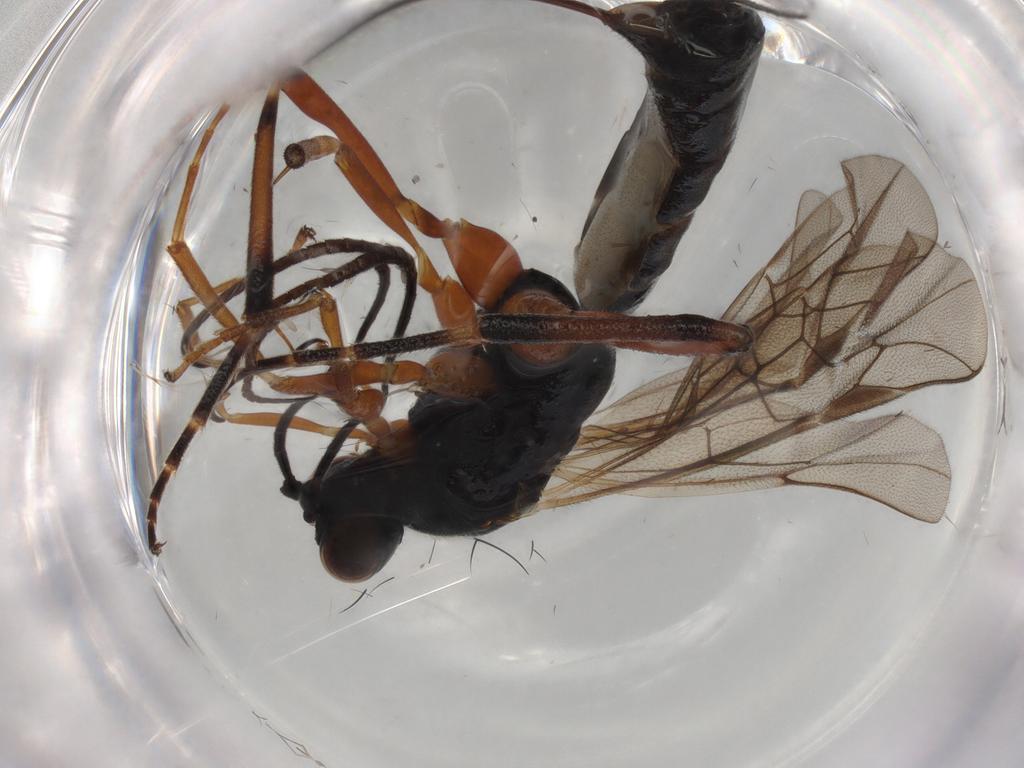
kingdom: Animalia
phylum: Arthropoda
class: Insecta
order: Hymenoptera
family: Ichneumonidae
